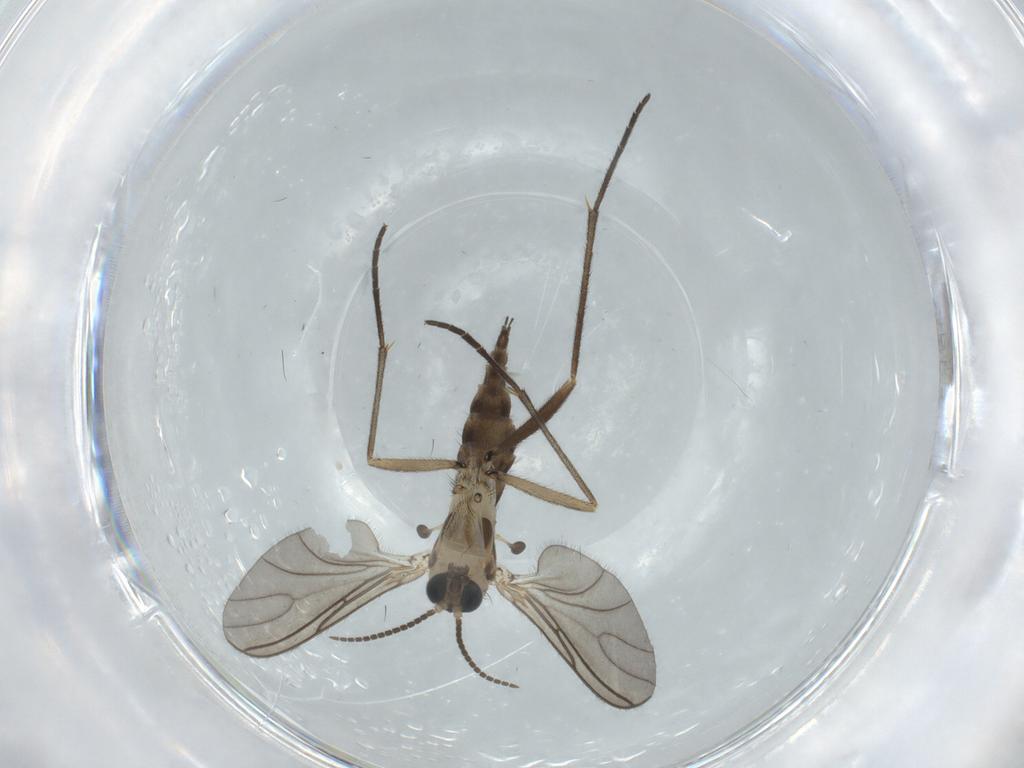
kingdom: Animalia
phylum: Arthropoda
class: Insecta
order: Diptera
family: Sciaridae
